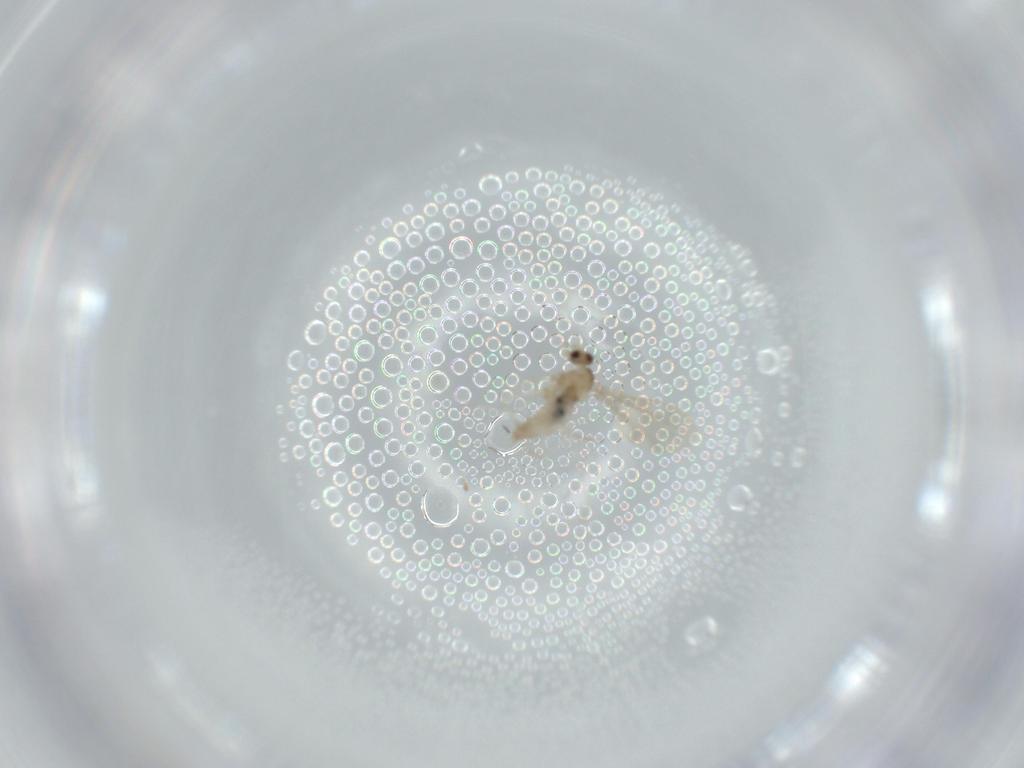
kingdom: Animalia
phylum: Arthropoda
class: Insecta
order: Diptera
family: Cecidomyiidae
